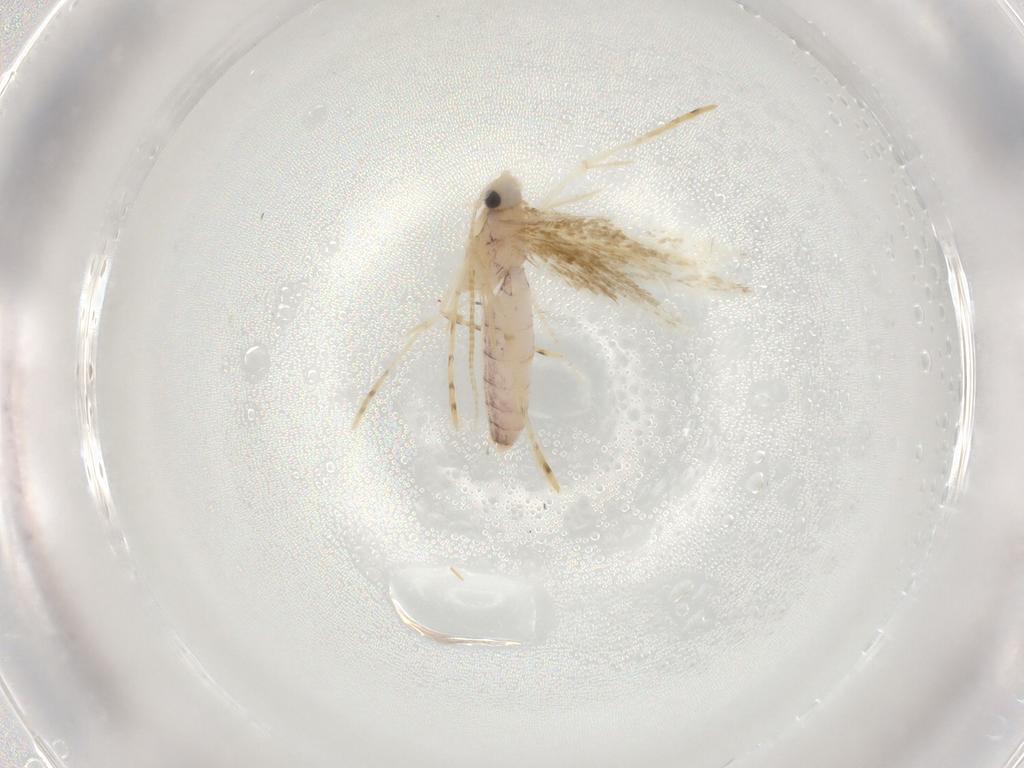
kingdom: Animalia
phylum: Arthropoda
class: Insecta
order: Lepidoptera
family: Lyonetiidae
